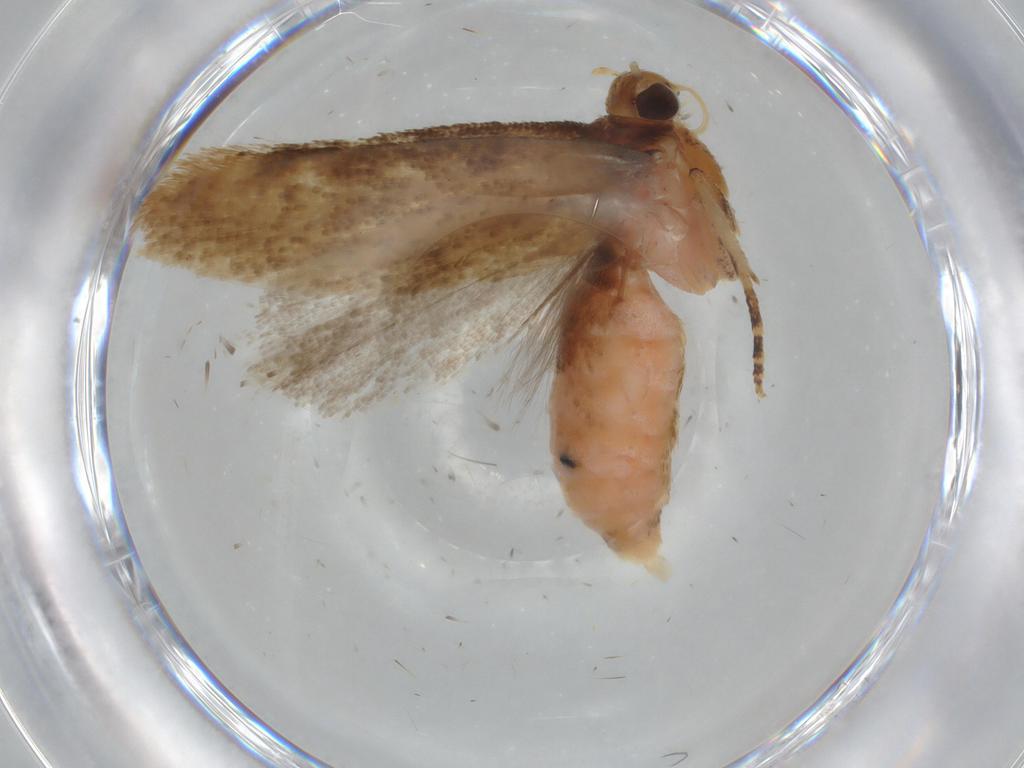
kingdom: Animalia
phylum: Arthropoda
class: Insecta
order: Lepidoptera
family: Gelechiidae
